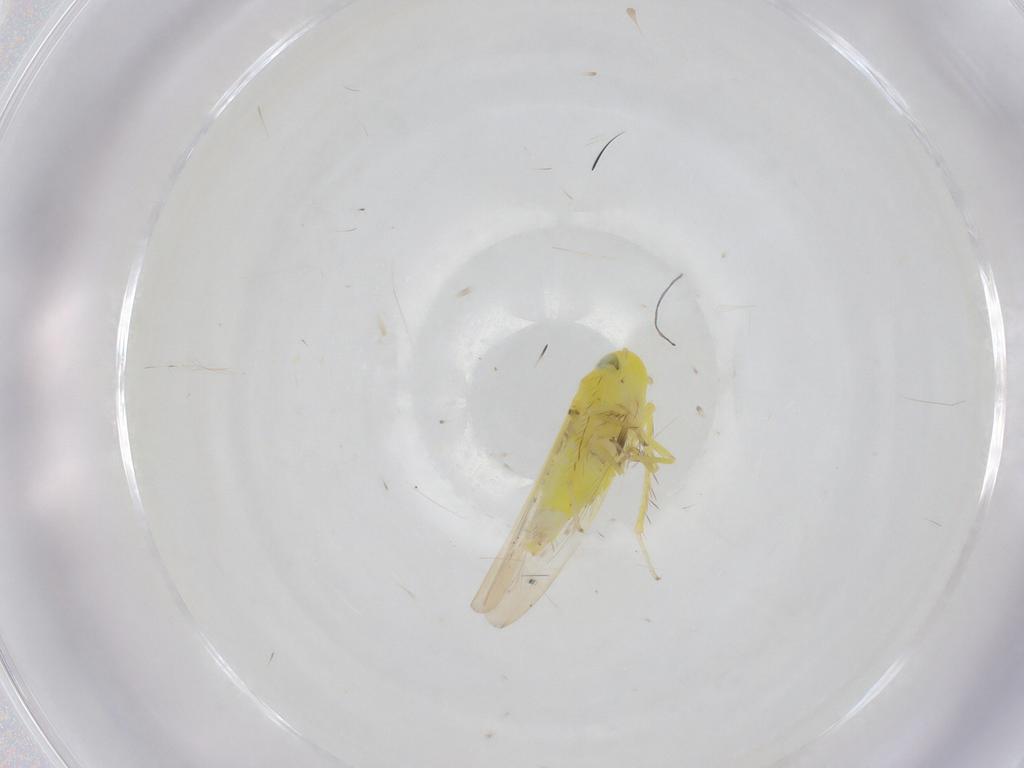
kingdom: Animalia
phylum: Arthropoda
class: Insecta
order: Hemiptera
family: Cicadellidae
